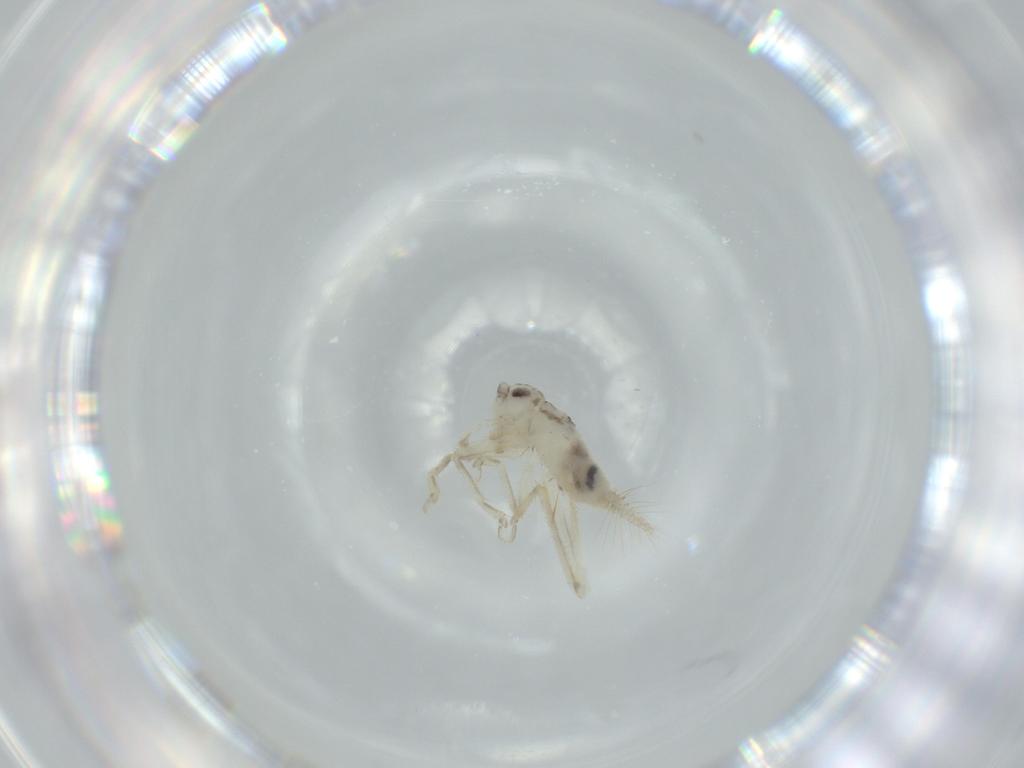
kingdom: Animalia
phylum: Arthropoda
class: Insecta
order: Orthoptera
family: Trigonidiidae
